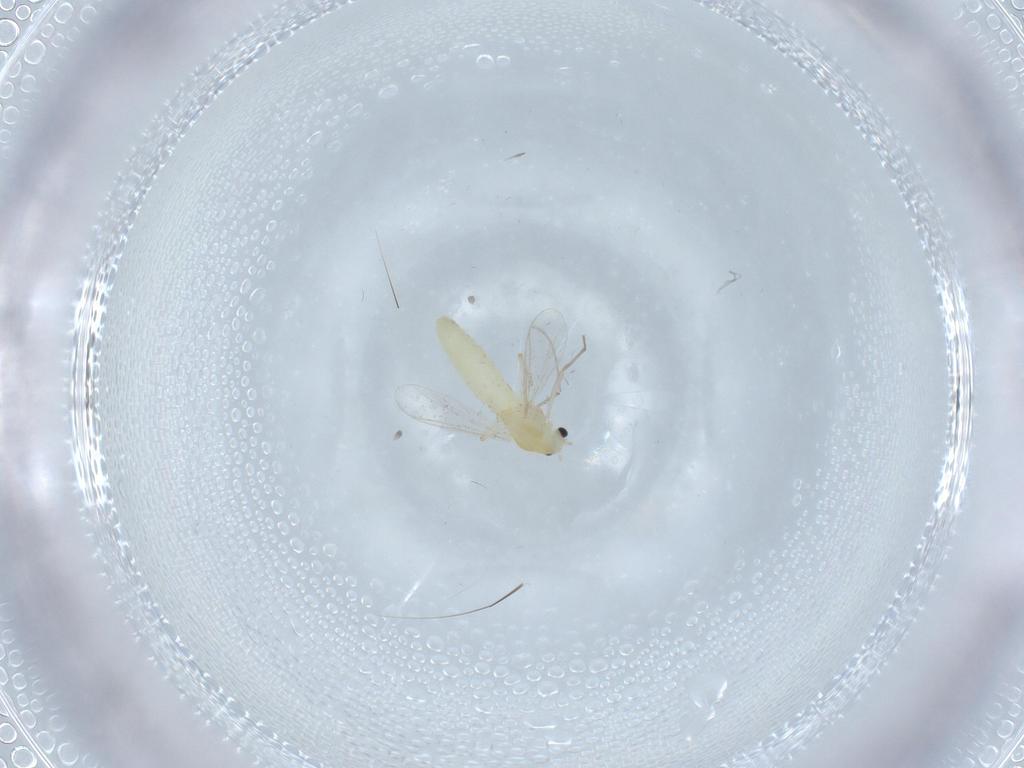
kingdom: Animalia
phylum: Arthropoda
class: Insecta
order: Diptera
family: Chironomidae
